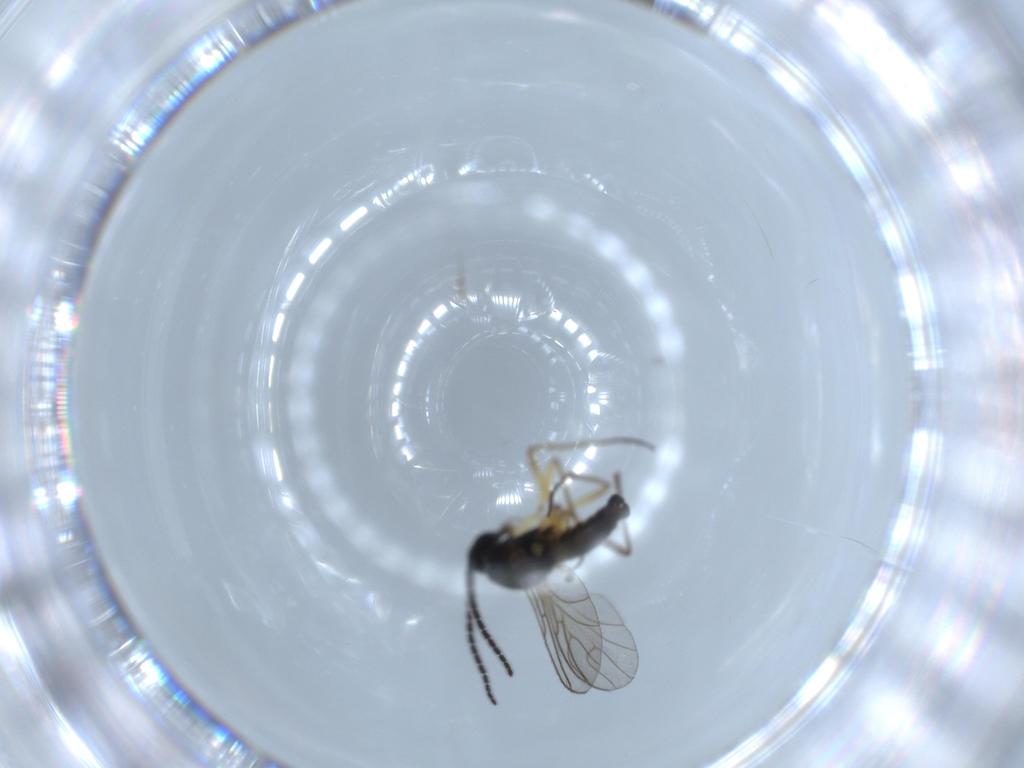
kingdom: Animalia
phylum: Arthropoda
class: Insecta
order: Diptera
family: Sciaridae
